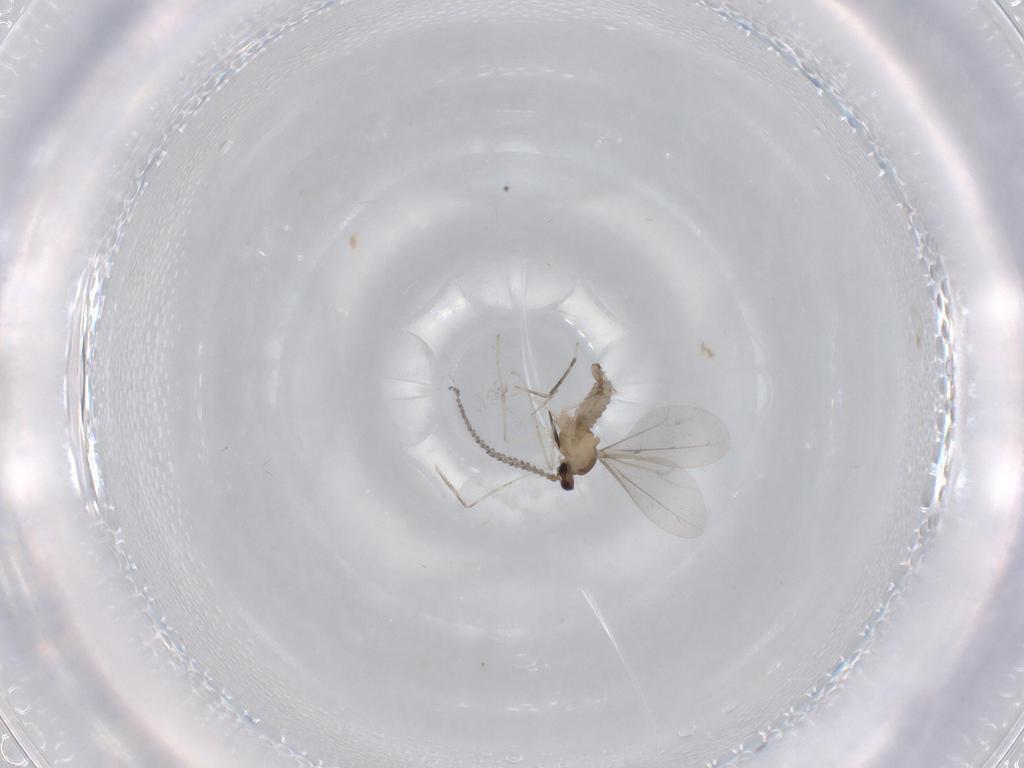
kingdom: Animalia
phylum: Arthropoda
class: Insecta
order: Diptera
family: Cecidomyiidae
